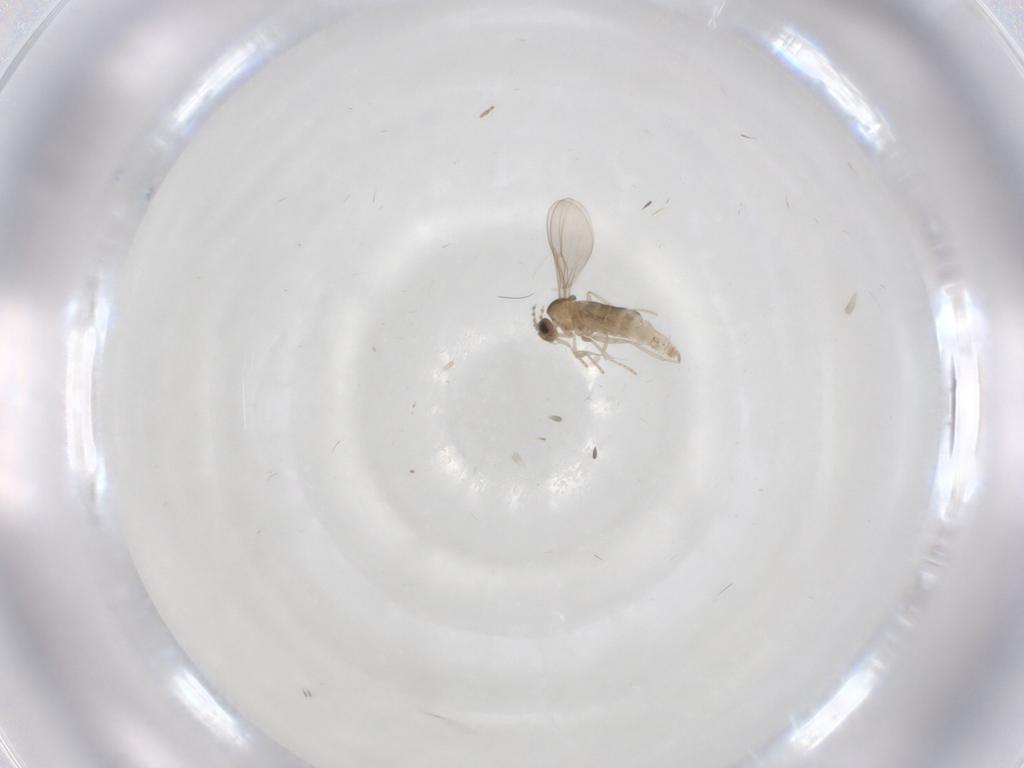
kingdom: Animalia
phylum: Arthropoda
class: Insecta
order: Diptera
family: Cecidomyiidae
